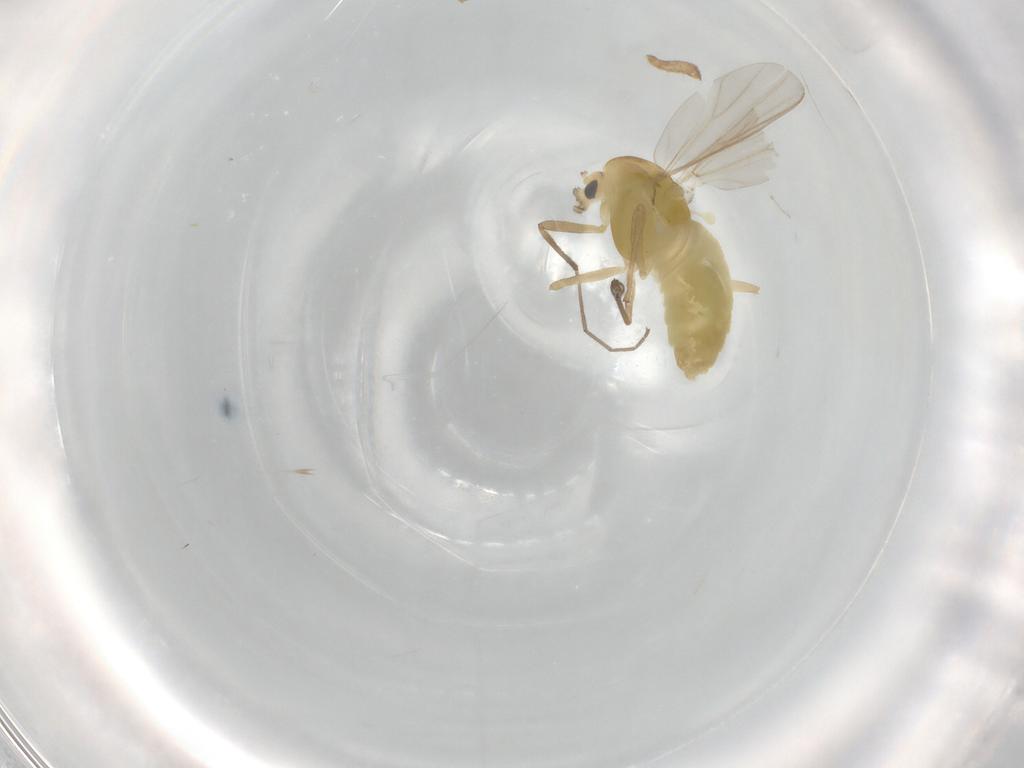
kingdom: Animalia
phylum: Arthropoda
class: Insecta
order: Diptera
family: Chironomidae
